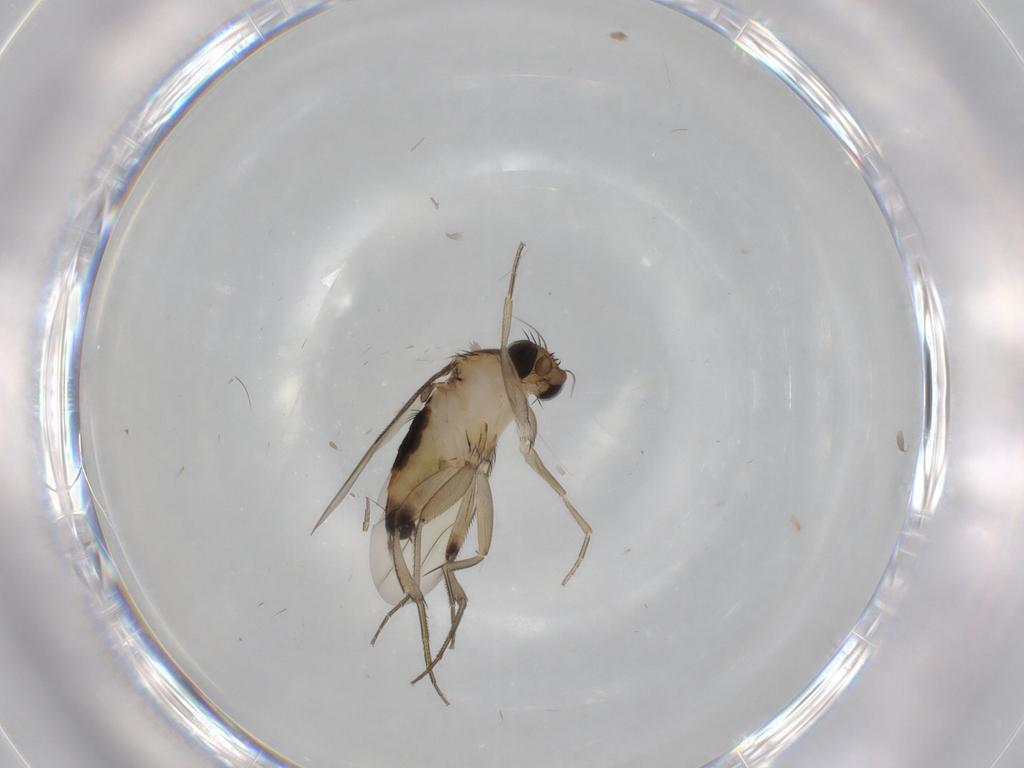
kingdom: Animalia
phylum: Arthropoda
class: Insecta
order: Diptera
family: Phoridae
